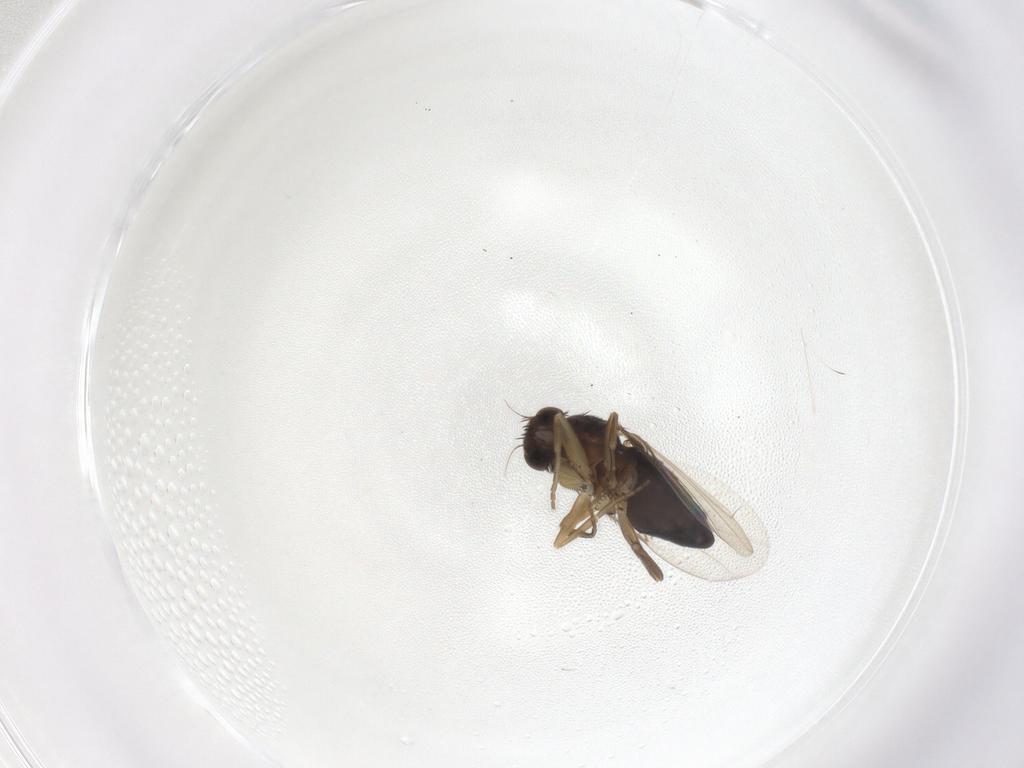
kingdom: Animalia
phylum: Arthropoda
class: Insecta
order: Diptera
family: Phoridae
